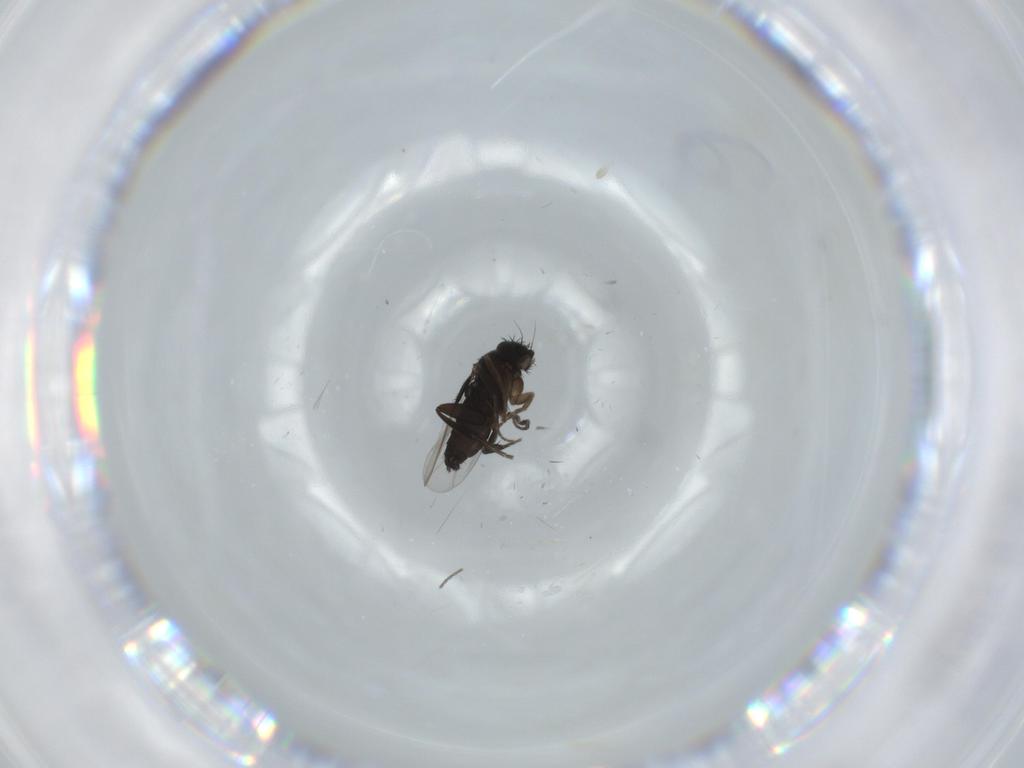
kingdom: Animalia
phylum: Arthropoda
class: Insecta
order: Diptera
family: Phoridae
